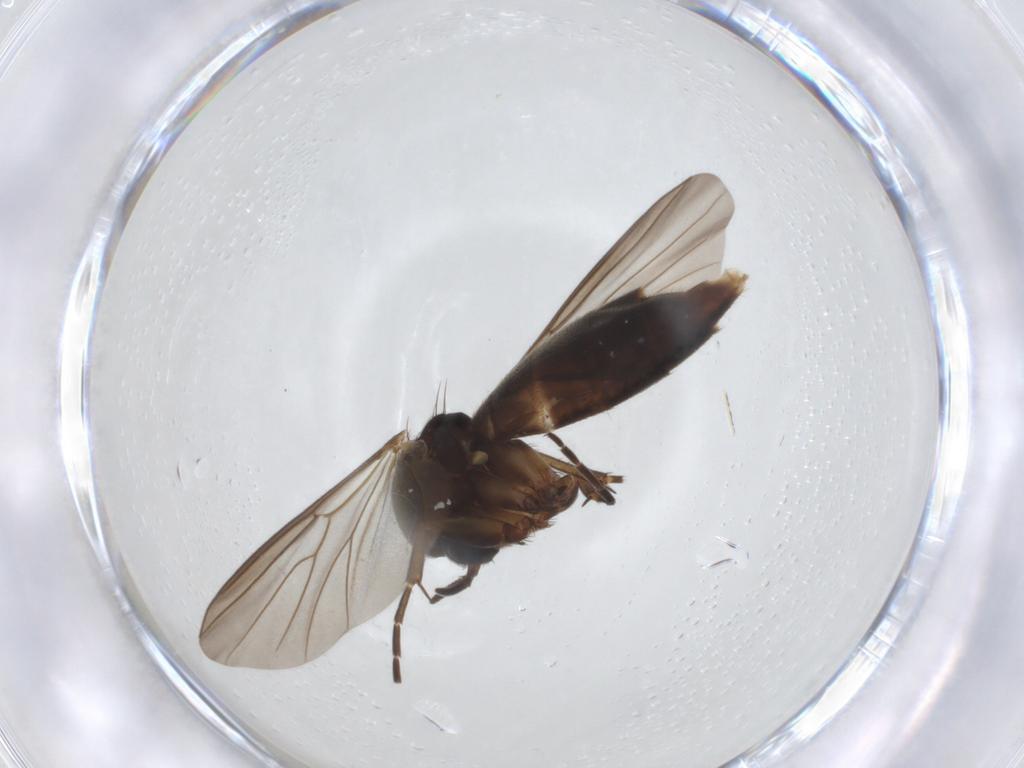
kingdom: Animalia
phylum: Arthropoda
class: Insecta
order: Diptera
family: Mycetophilidae
